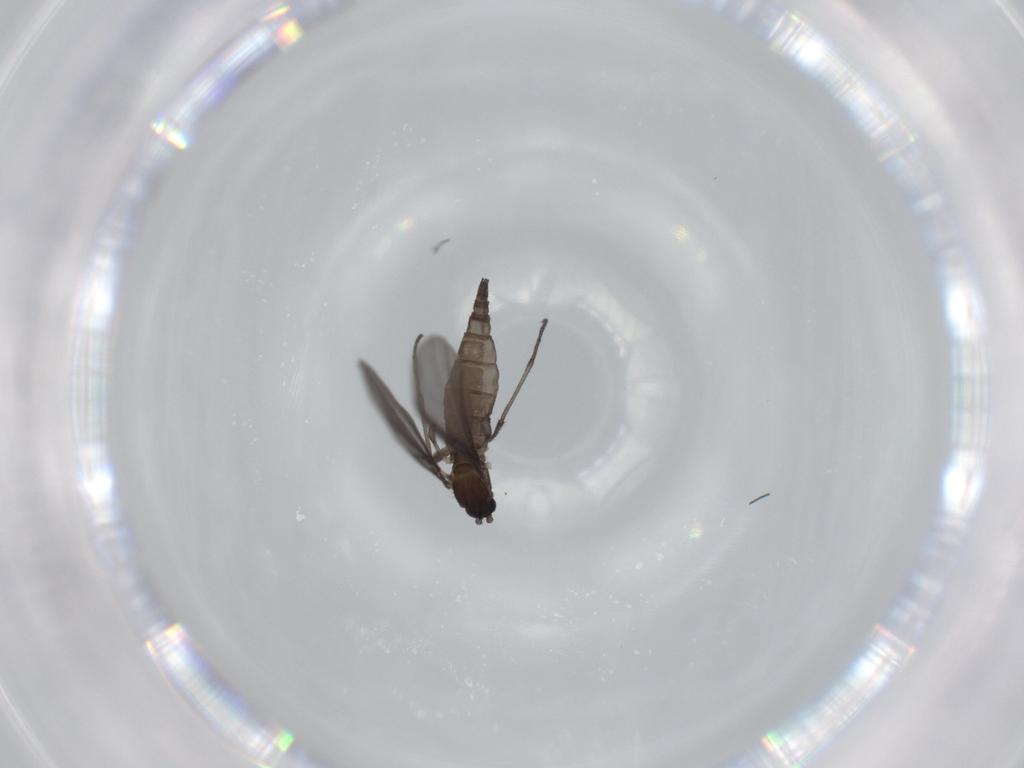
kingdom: Animalia
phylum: Arthropoda
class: Insecta
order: Diptera
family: Sciaridae
